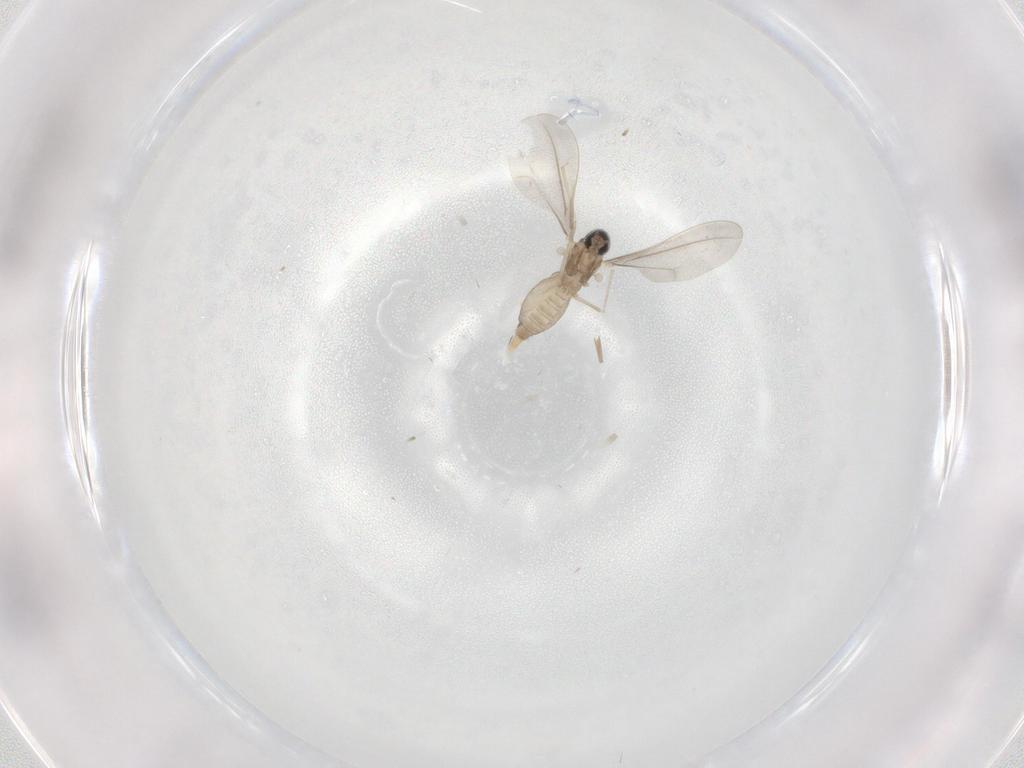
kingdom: Animalia
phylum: Arthropoda
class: Insecta
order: Diptera
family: Cecidomyiidae
